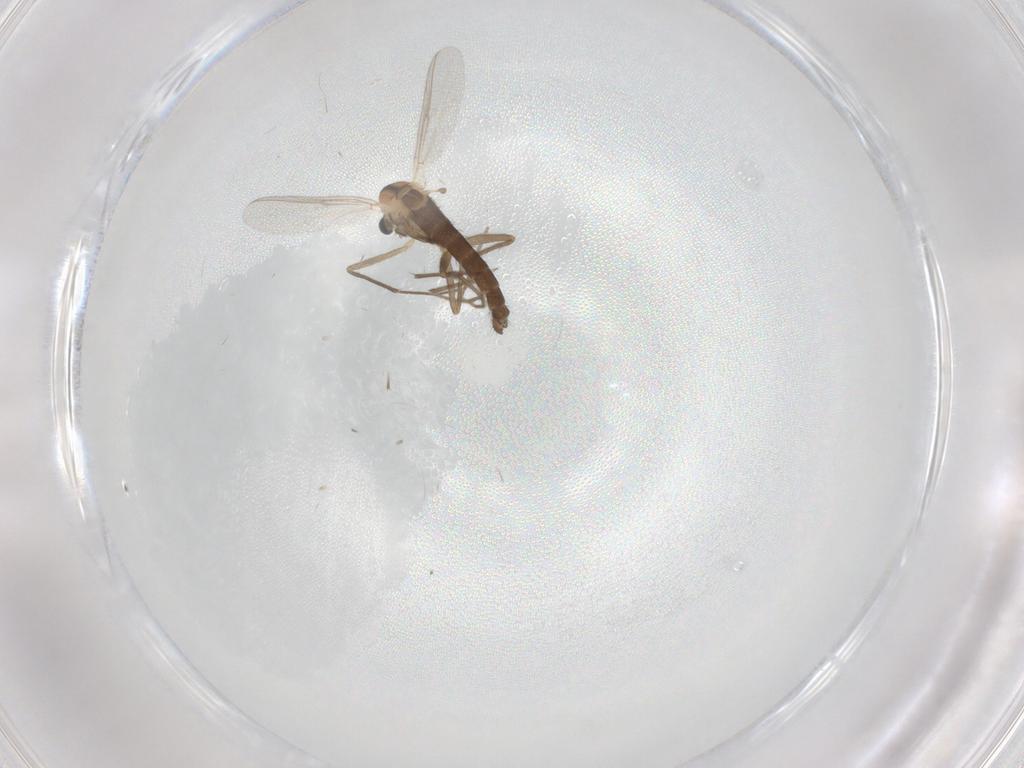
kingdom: Animalia
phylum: Arthropoda
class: Insecta
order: Diptera
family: Chironomidae
